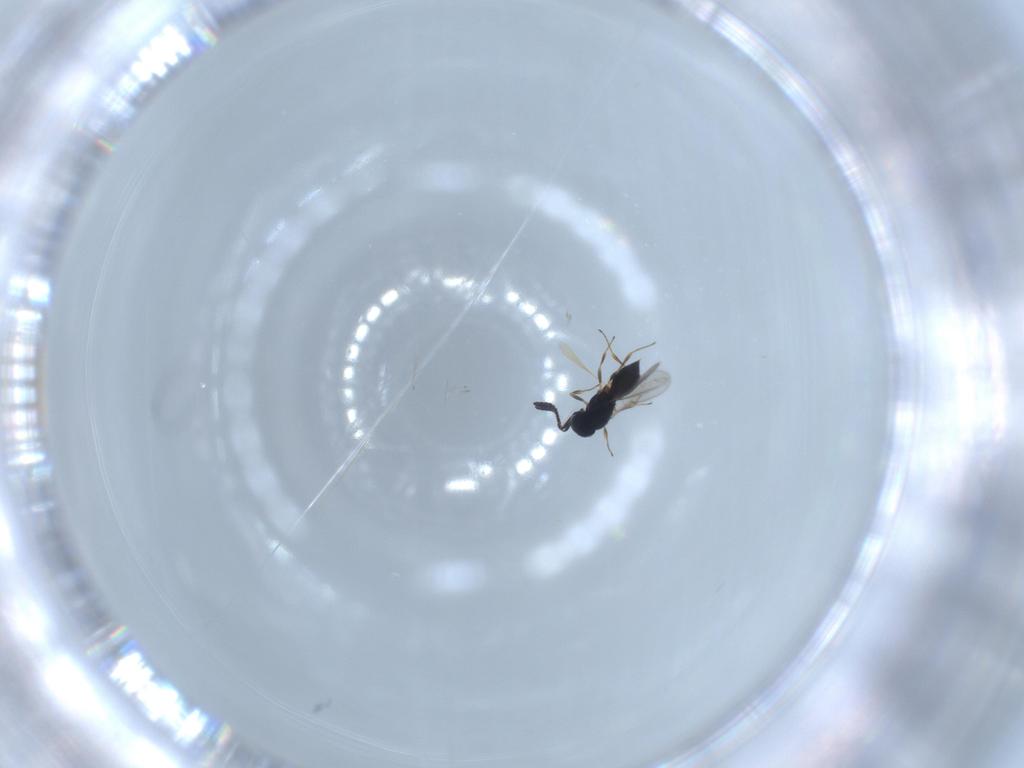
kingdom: Animalia
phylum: Arthropoda
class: Insecta
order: Hymenoptera
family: Scelionidae
